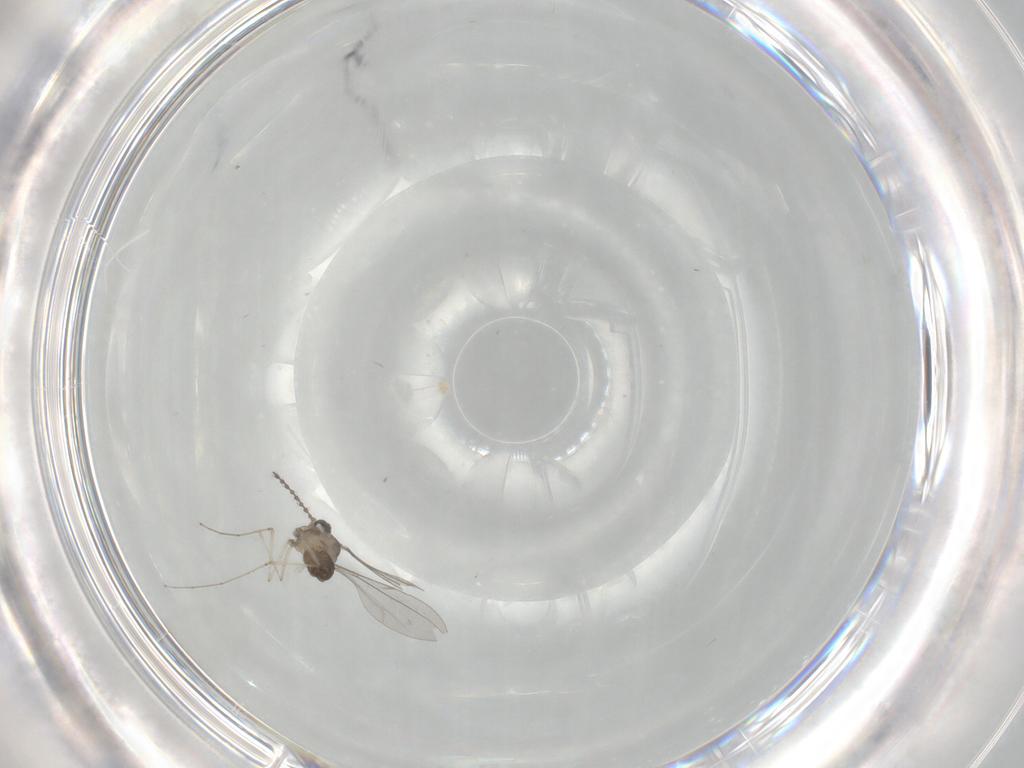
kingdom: Animalia
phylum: Arthropoda
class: Insecta
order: Diptera
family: Cecidomyiidae
